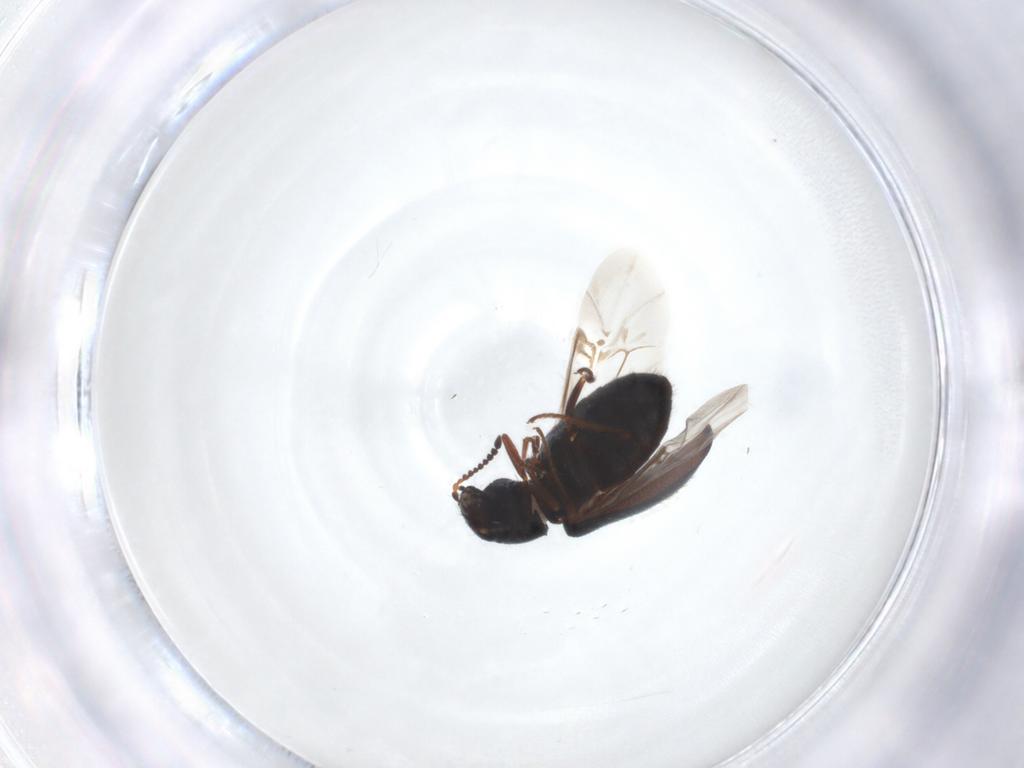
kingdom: Animalia
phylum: Arthropoda
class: Insecta
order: Coleoptera
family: Melyridae
